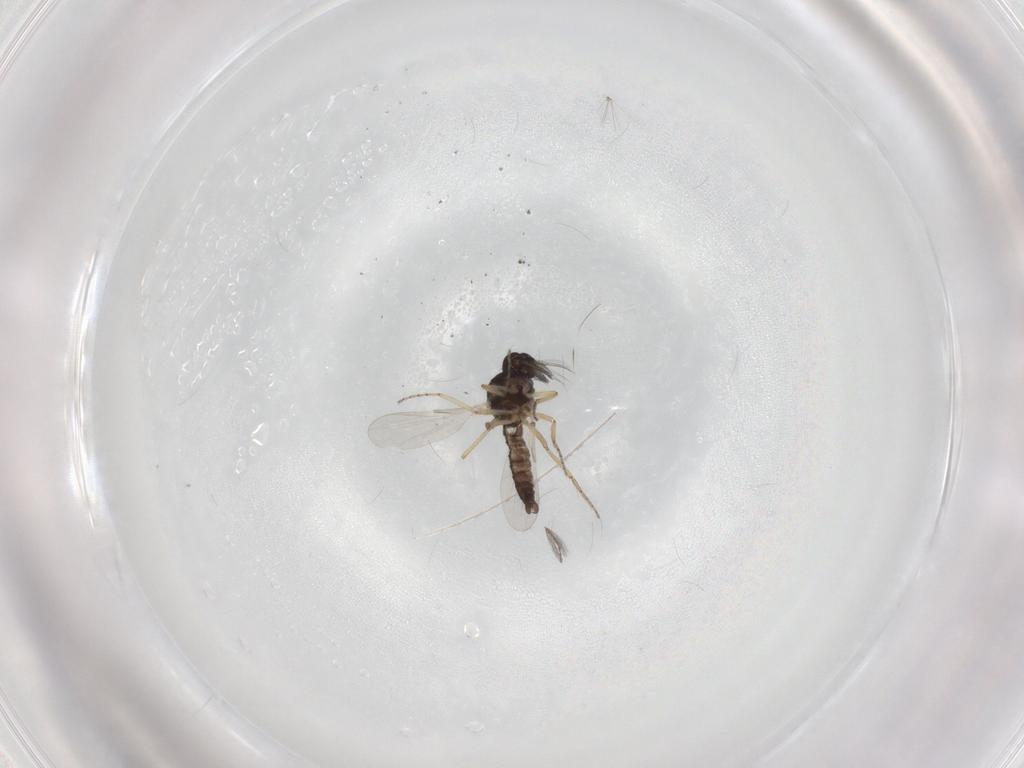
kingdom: Animalia
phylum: Arthropoda
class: Insecta
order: Diptera
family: Ceratopogonidae
